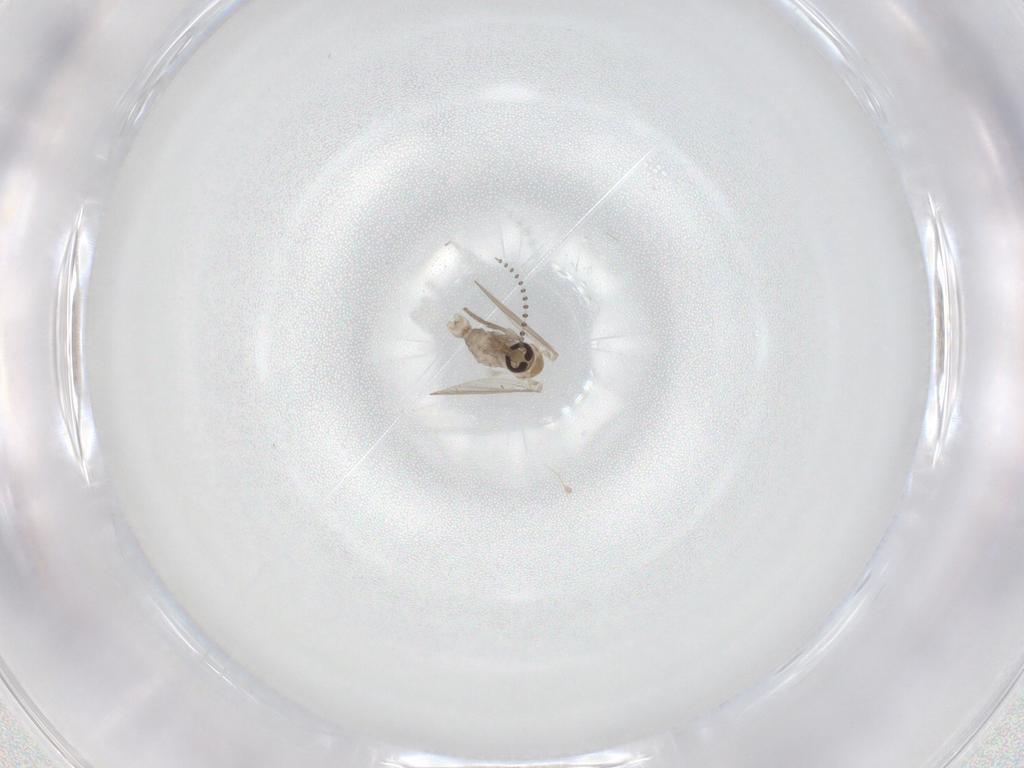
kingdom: Animalia
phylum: Arthropoda
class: Insecta
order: Diptera
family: Psychodidae
